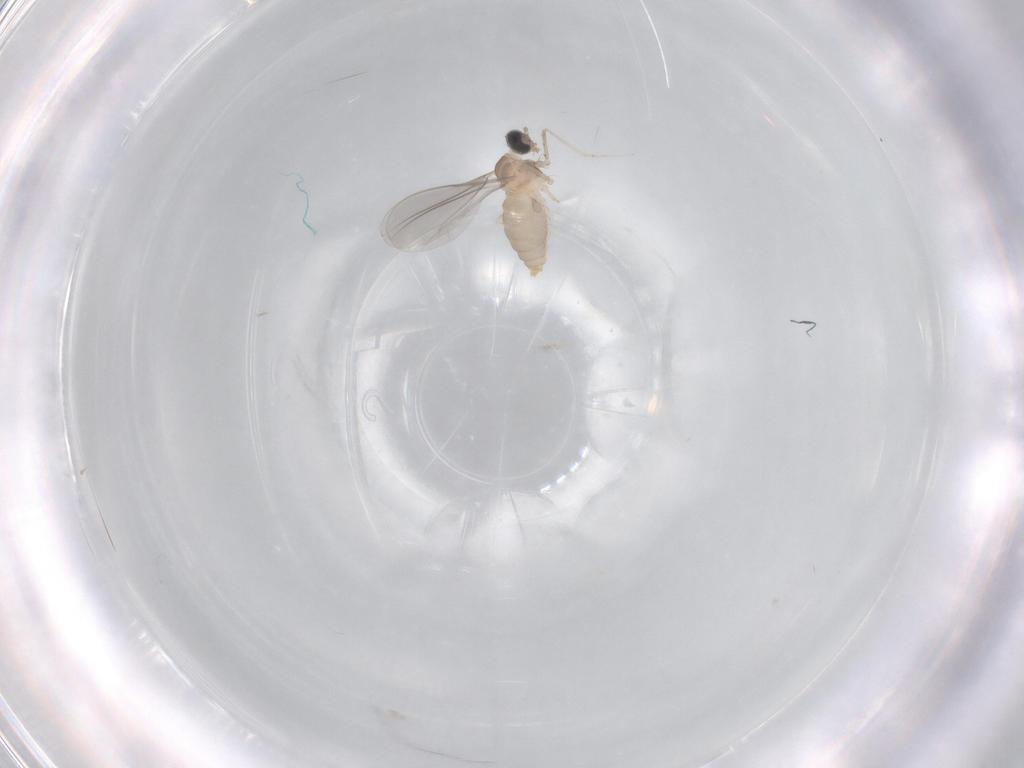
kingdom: Animalia
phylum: Arthropoda
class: Insecta
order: Diptera
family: Cecidomyiidae
